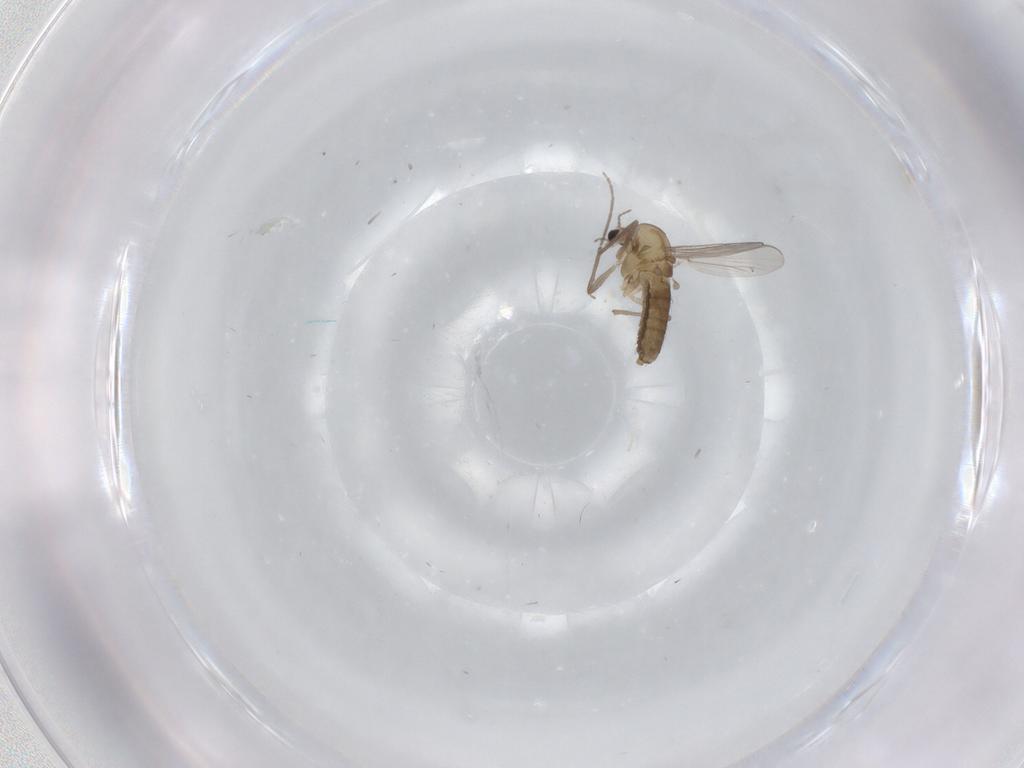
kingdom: Animalia
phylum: Arthropoda
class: Insecta
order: Diptera
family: Chironomidae
